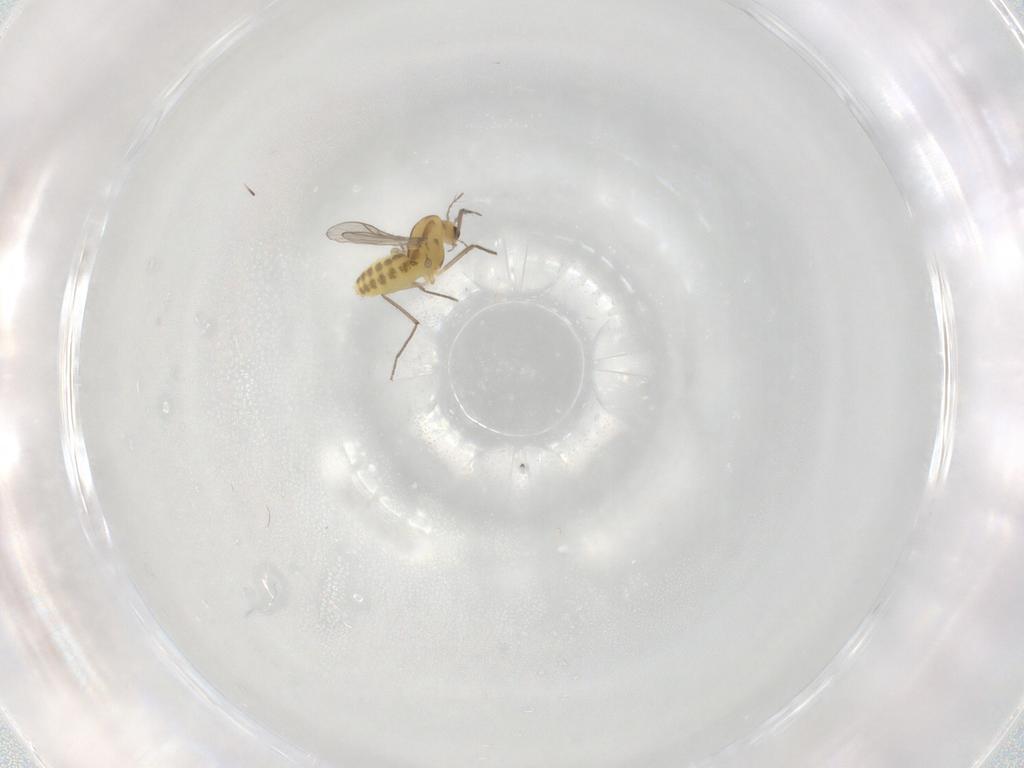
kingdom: Animalia
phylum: Arthropoda
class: Insecta
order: Diptera
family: Chironomidae
